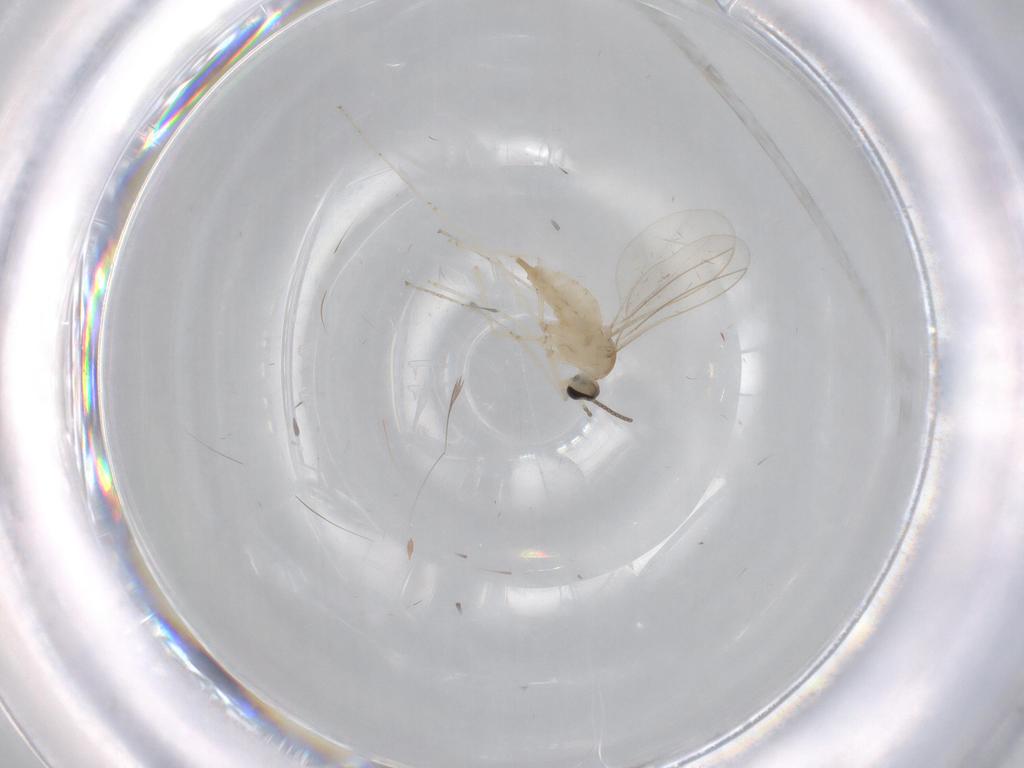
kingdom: Animalia
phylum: Arthropoda
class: Insecta
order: Diptera
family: Cecidomyiidae
